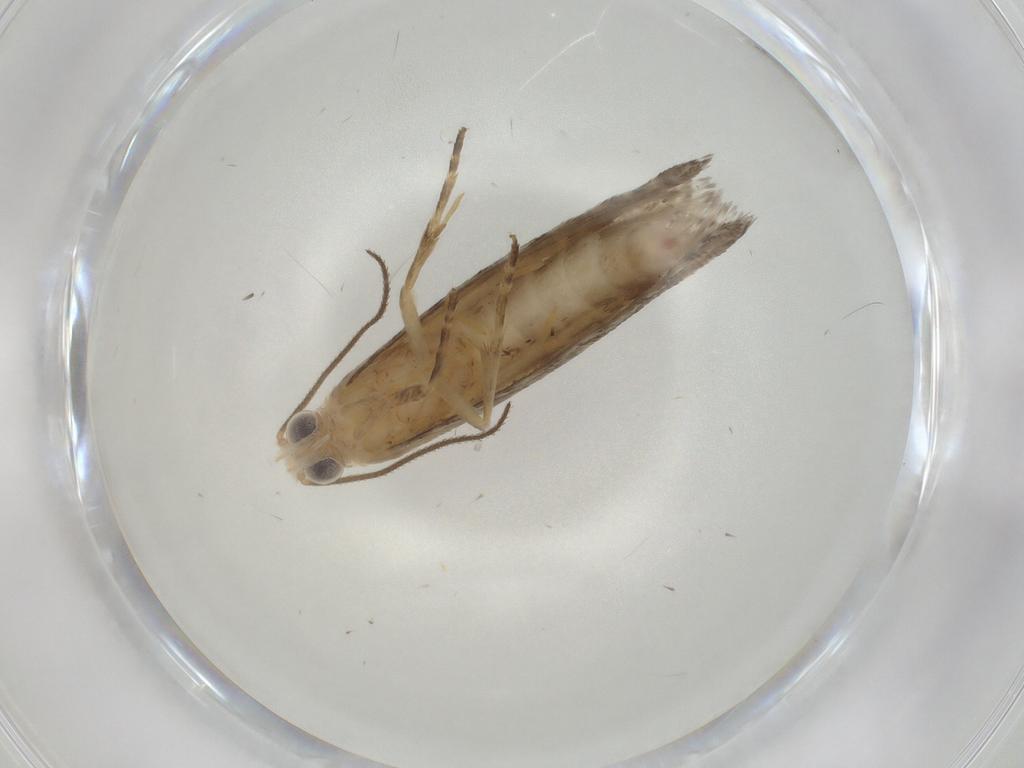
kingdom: Animalia
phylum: Arthropoda
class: Insecta
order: Lepidoptera
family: Tortricidae
